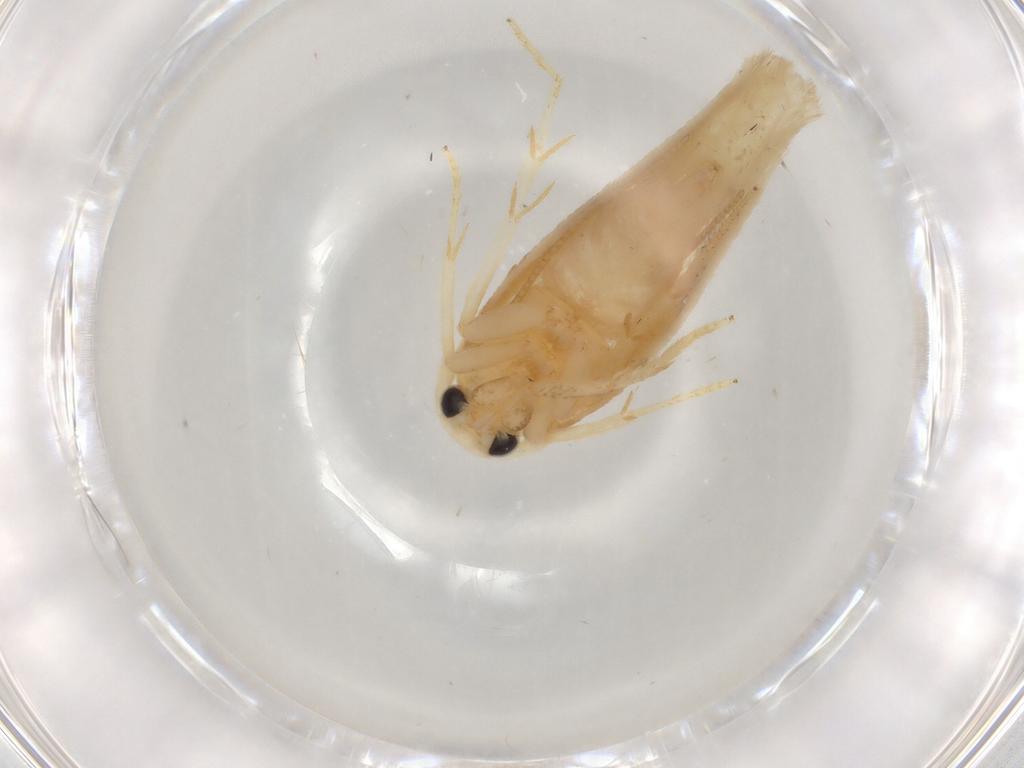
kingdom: Animalia
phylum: Arthropoda
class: Insecta
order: Lepidoptera
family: Geometridae
